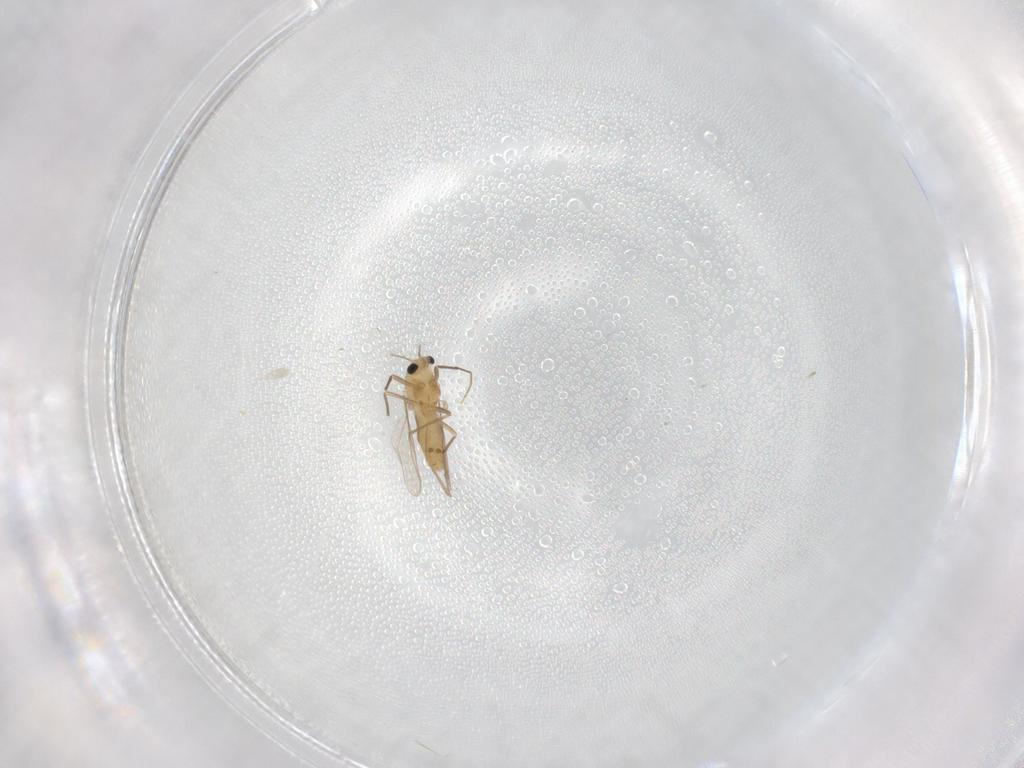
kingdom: Animalia
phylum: Arthropoda
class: Insecta
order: Diptera
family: Chironomidae
